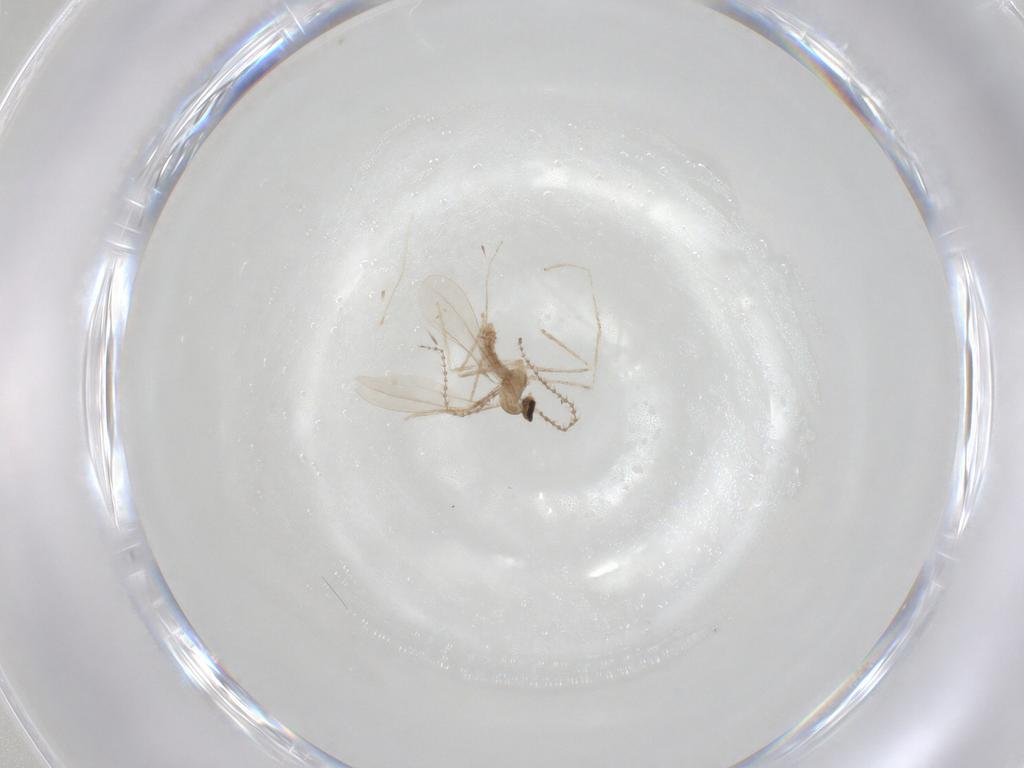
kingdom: Animalia
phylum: Arthropoda
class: Insecta
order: Diptera
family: Cecidomyiidae
